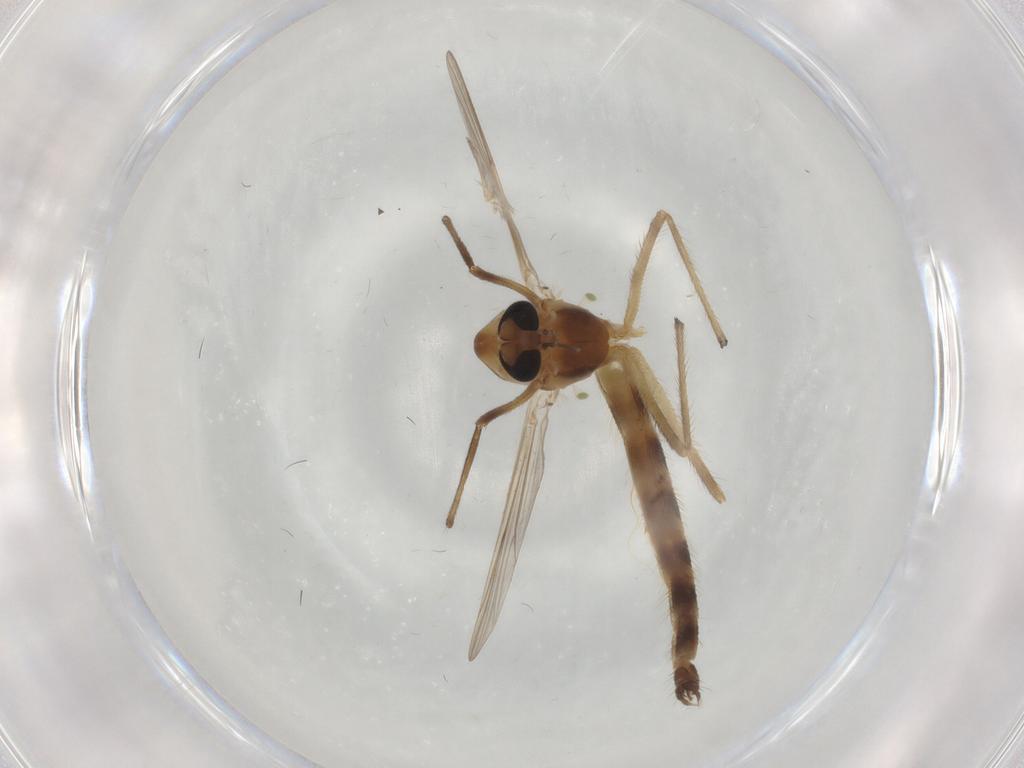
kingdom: Animalia
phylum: Arthropoda
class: Insecta
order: Diptera
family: Chironomidae
